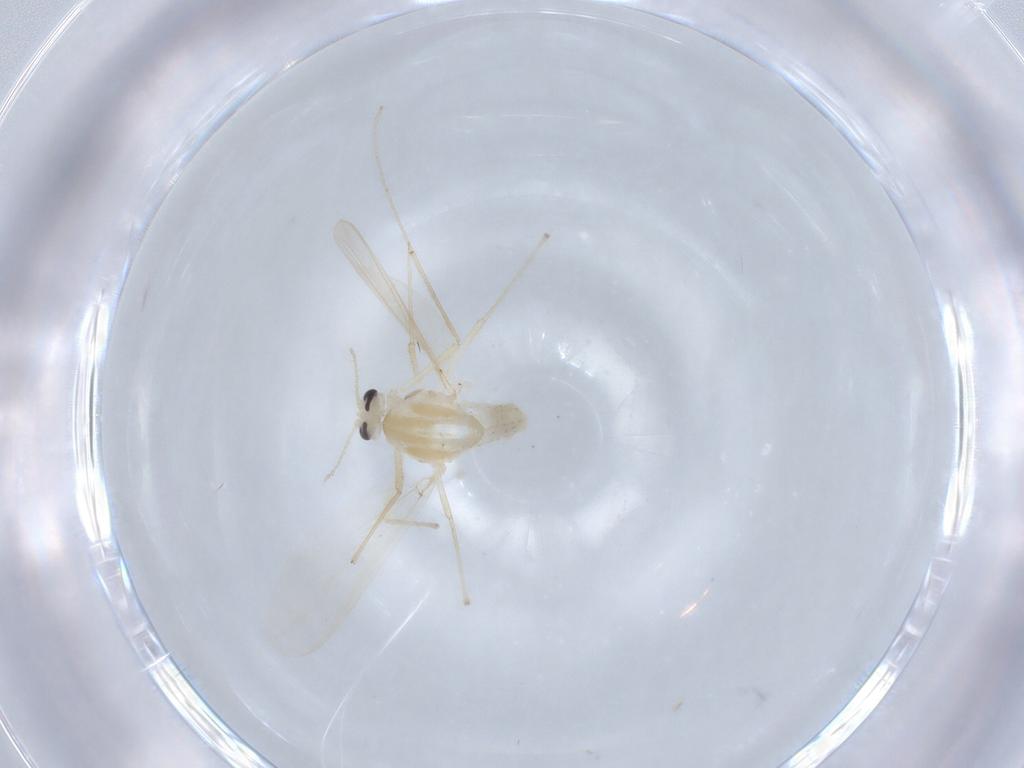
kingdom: Animalia
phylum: Arthropoda
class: Insecta
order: Diptera
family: Chironomidae
